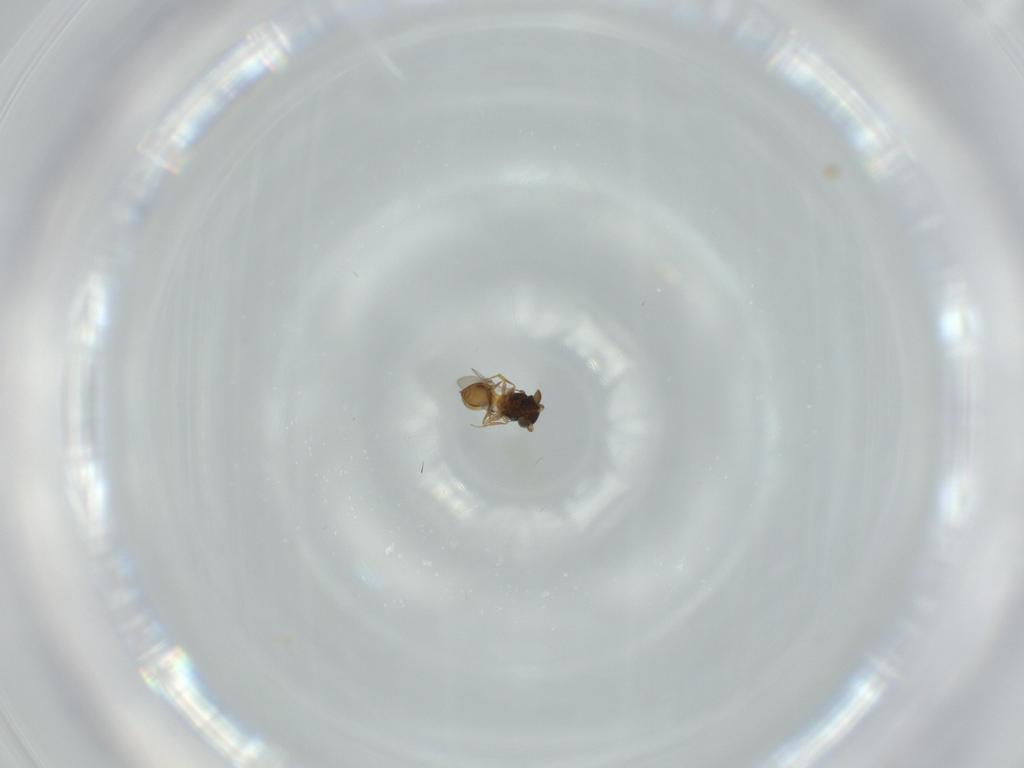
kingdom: Animalia
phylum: Arthropoda
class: Insecta
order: Hymenoptera
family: Scelionidae
